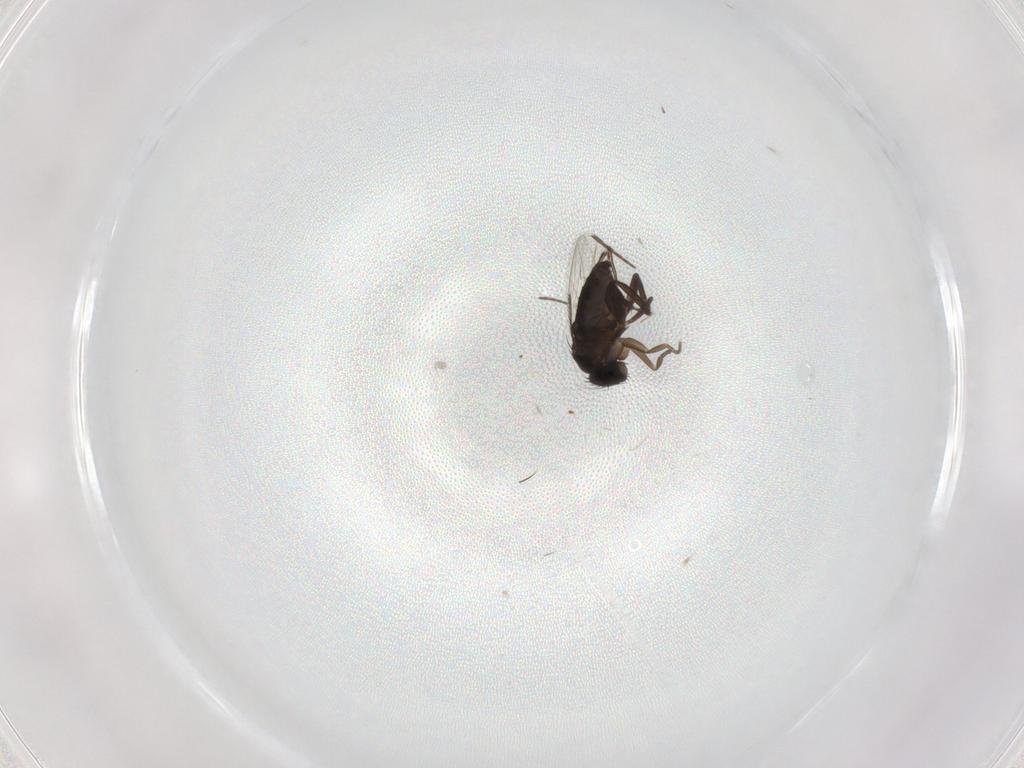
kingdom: Animalia
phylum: Arthropoda
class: Insecta
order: Diptera
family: Phoridae
